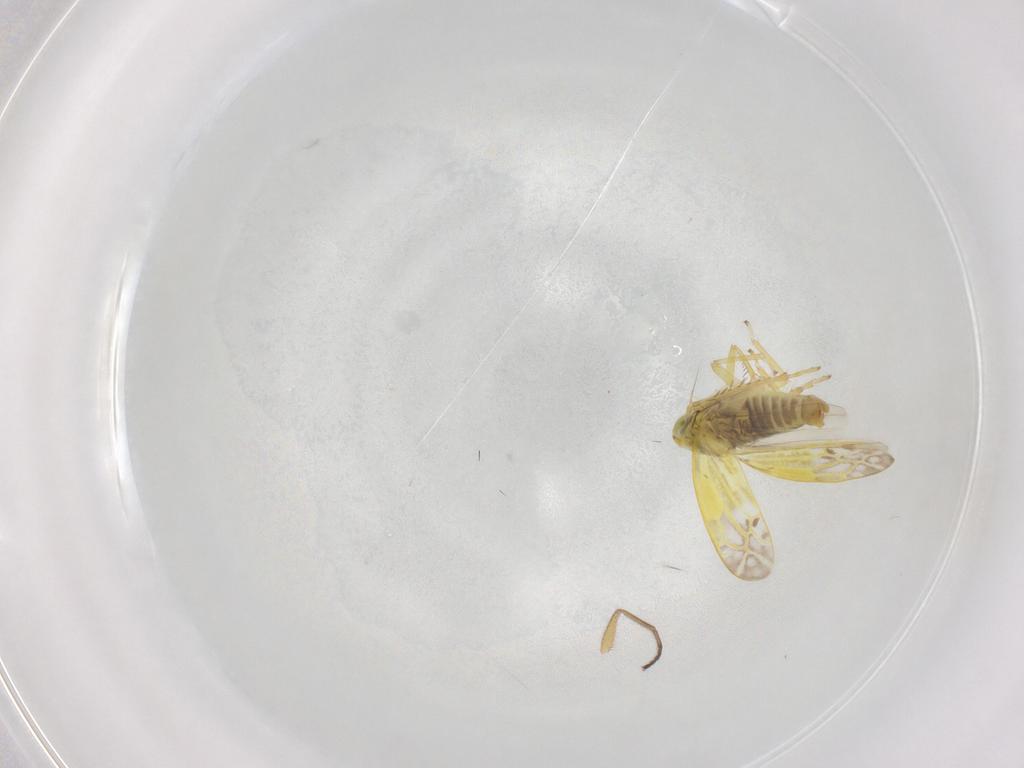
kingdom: Animalia
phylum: Arthropoda
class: Insecta
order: Hemiptera
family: Cicadellidae
